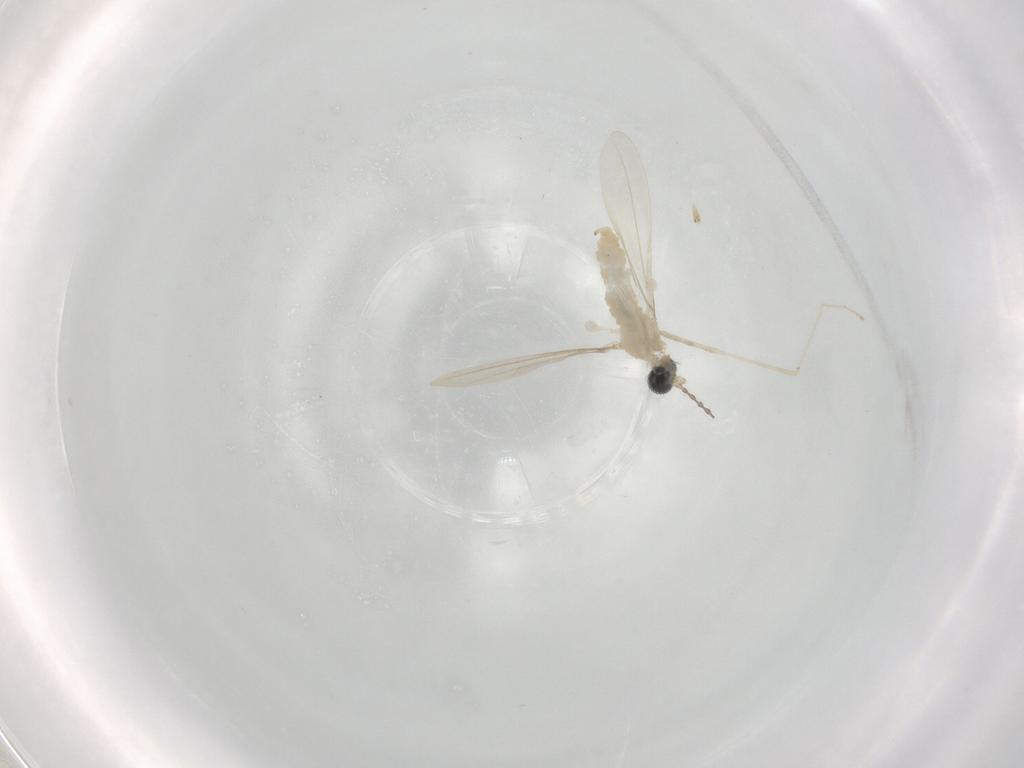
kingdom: Animalia
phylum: Arthropoda
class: Insecta
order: Diptera
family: Cecidomyiidae
